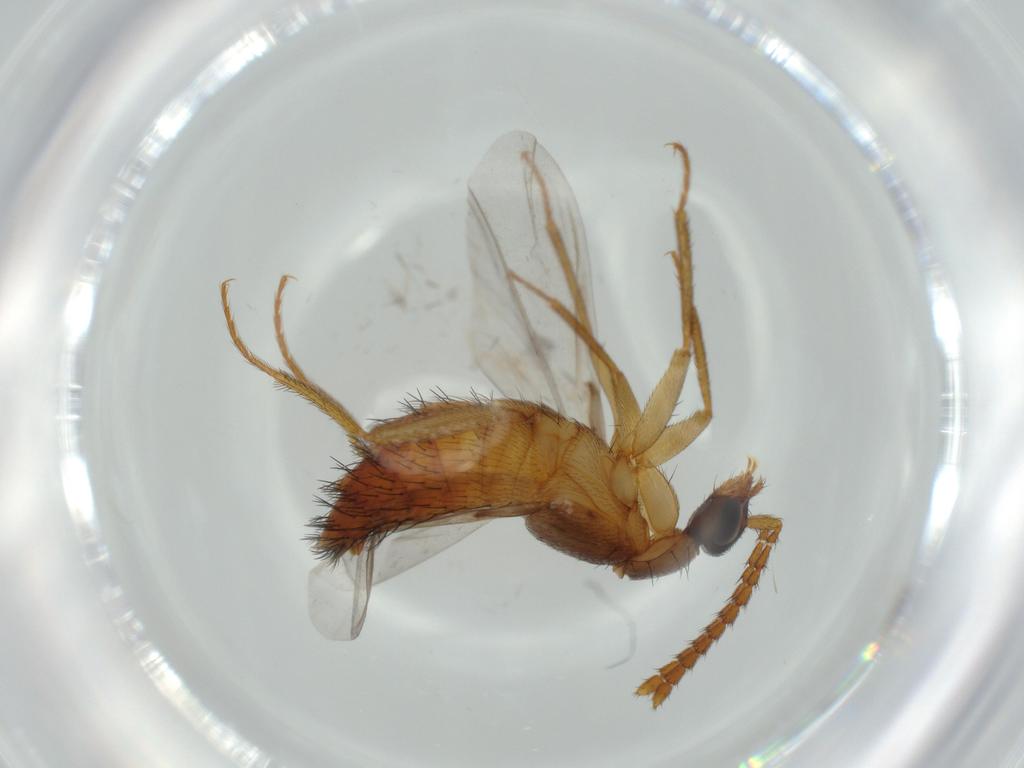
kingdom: Animalia
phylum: Arthropoda
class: Insecta
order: Coleoptera
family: Staphylinidae
